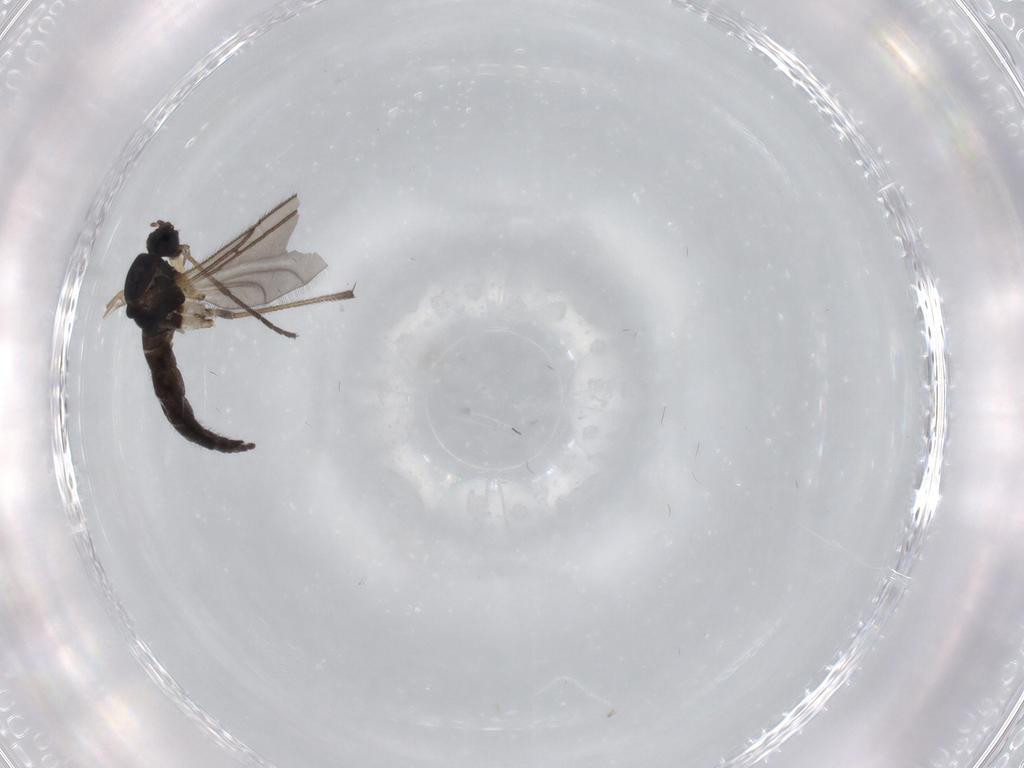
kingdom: Animalia
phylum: Arthropoda
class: Insecta
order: Diptera
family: Sciaridae
